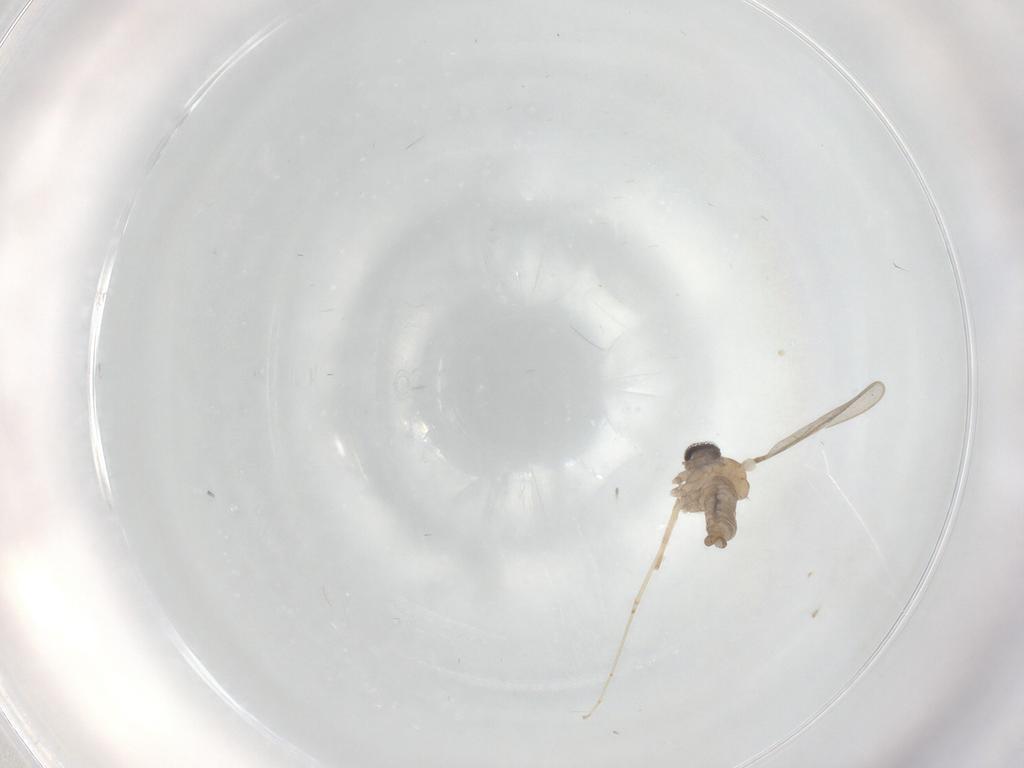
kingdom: Animalia
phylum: Arthropoda
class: Insecta
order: Diptera
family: Cecidomyiidae
